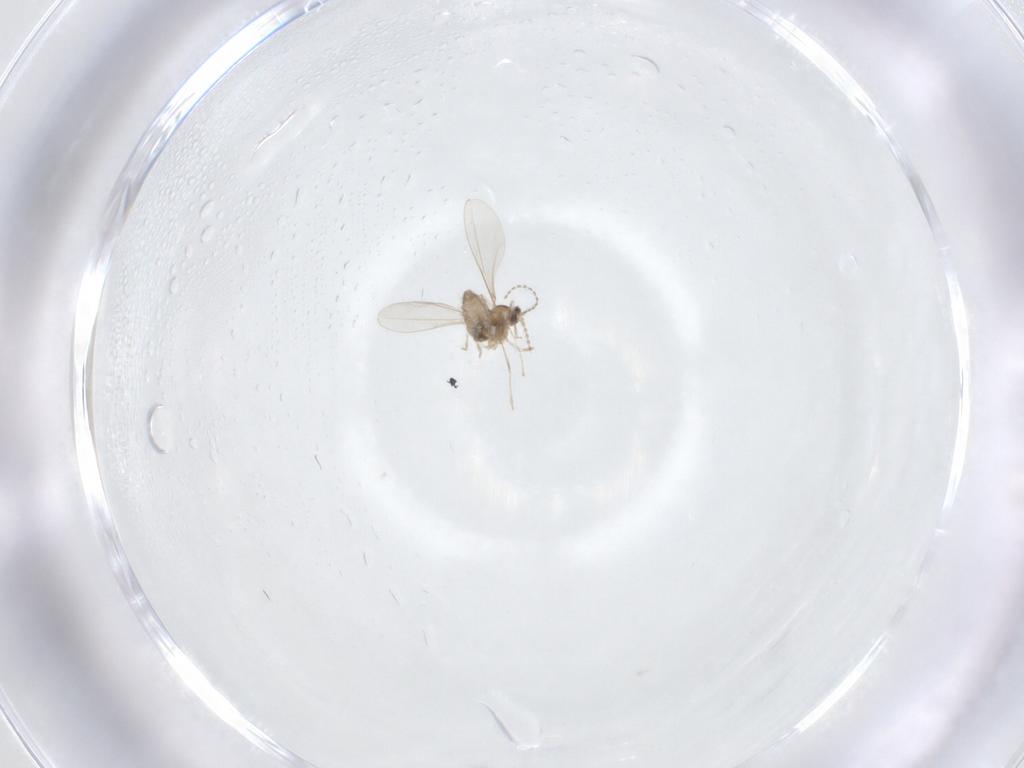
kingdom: Animalia
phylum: Arthropoda
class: Insecta
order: Diptera
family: Cecidomyiidae
